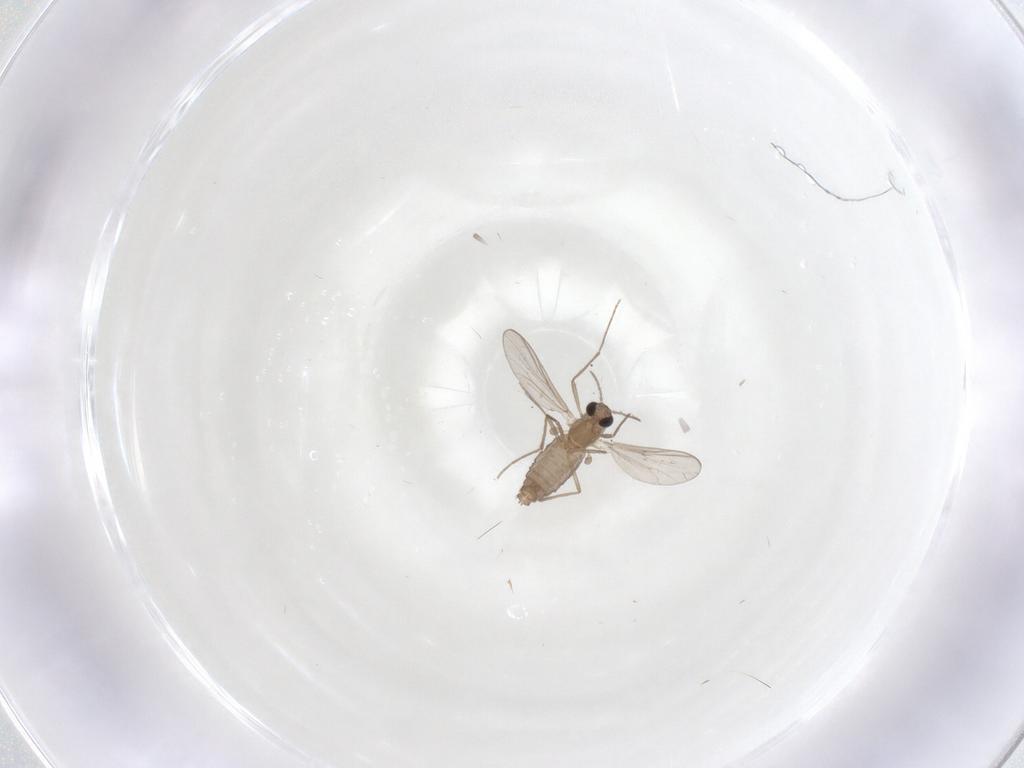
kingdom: Animalia
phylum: Arthropoda
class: Insecta
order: Diptera
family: Chironomidae
